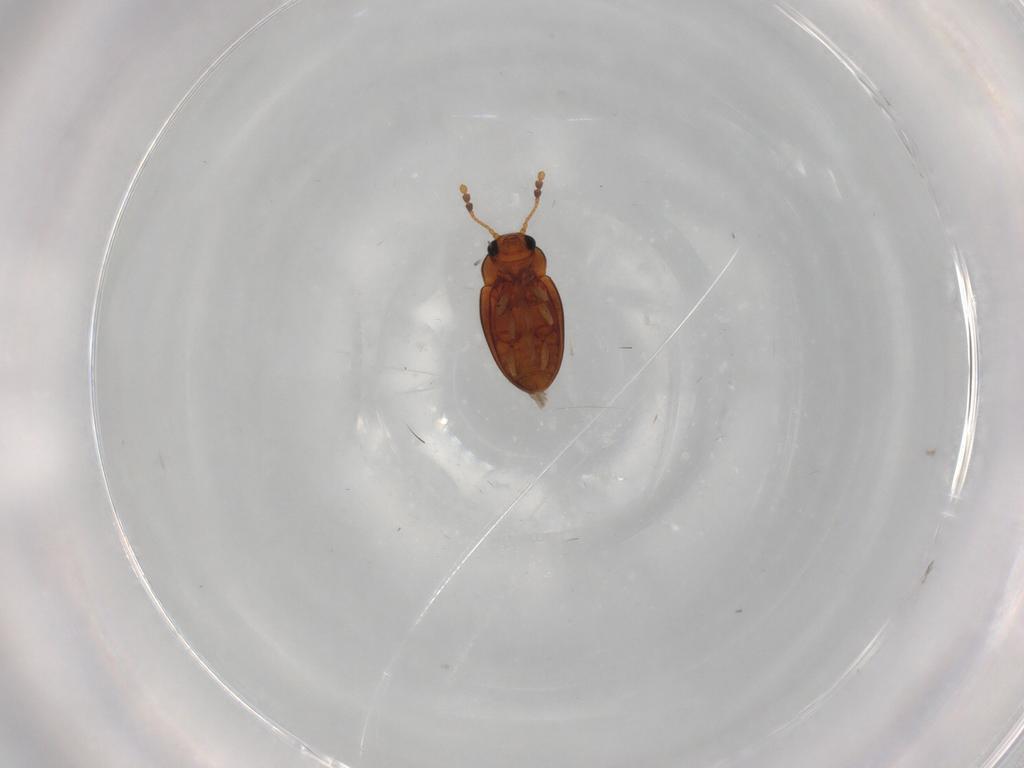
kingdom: Animalia
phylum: Arthropoda
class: Insecta
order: Coleoptera
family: Erotylidae
